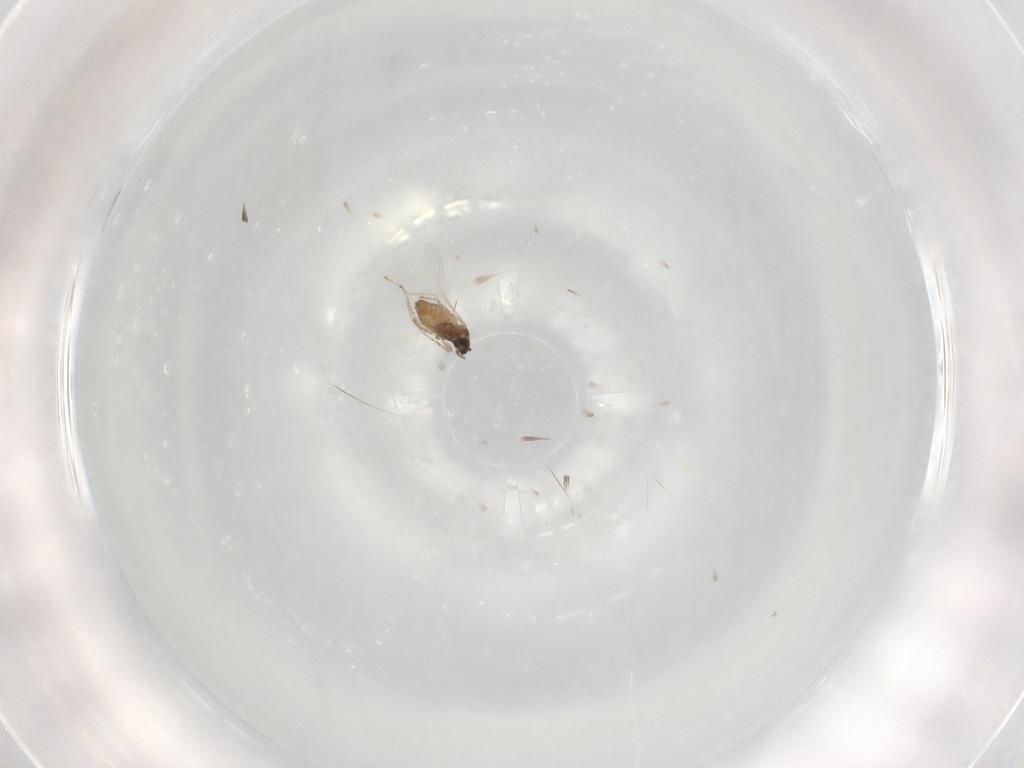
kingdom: Animalia
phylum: Arthropoda
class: Insecta
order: Diptera
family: Cecidomyiidae
